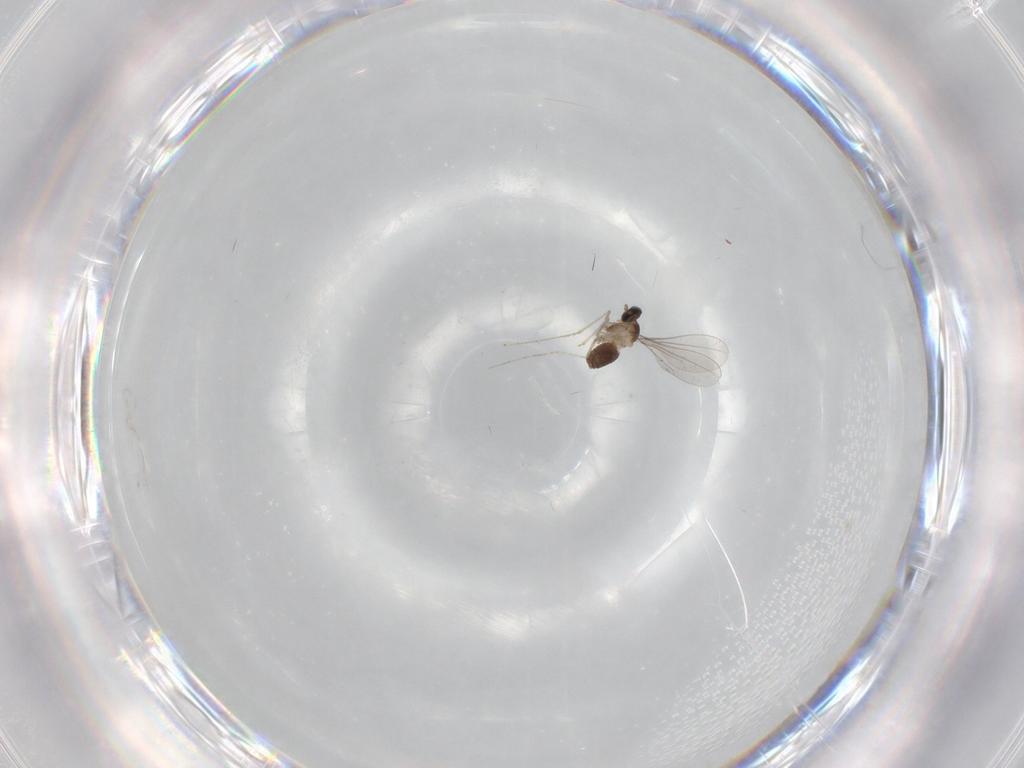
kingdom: Animalia
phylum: Arthropoda
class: Insecta
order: Diptera
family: Cecidomyiidae
